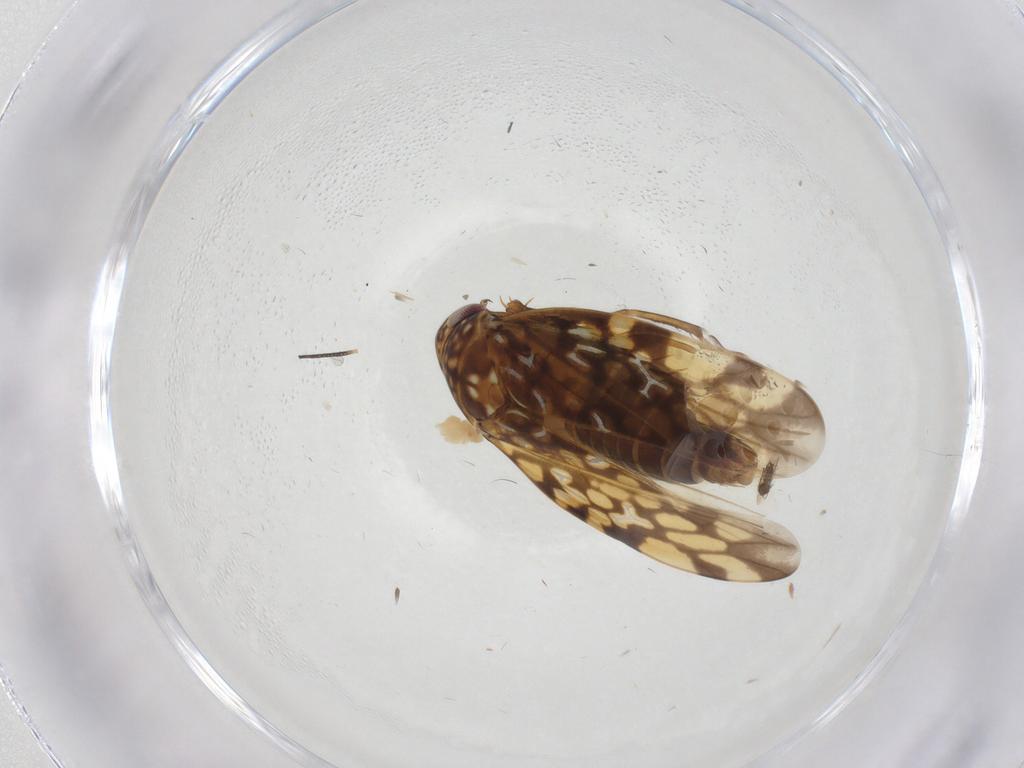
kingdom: Animalia
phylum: Arthropoda
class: Insecta
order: Hemiptera
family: Cicadellidae
